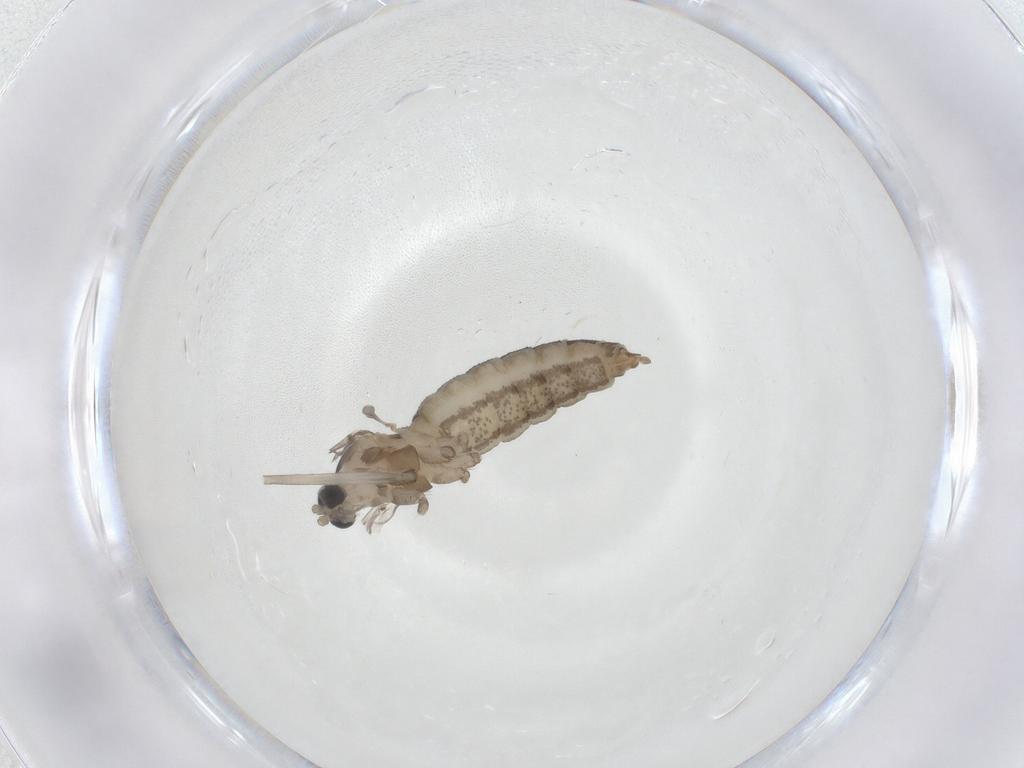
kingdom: Animalia
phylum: Arthropoda
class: Insecta
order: Diptera
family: Cecidomyiidae
